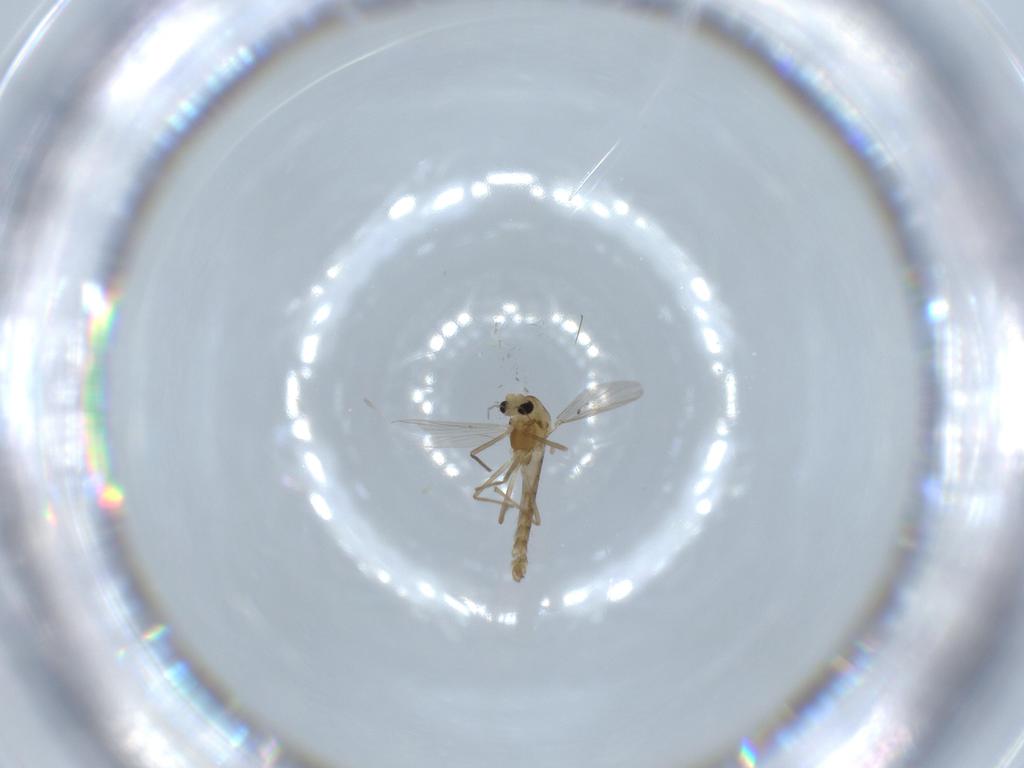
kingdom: Animalia
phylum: Arthropoda
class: Insecta
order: Diptera
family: Chironomidae
